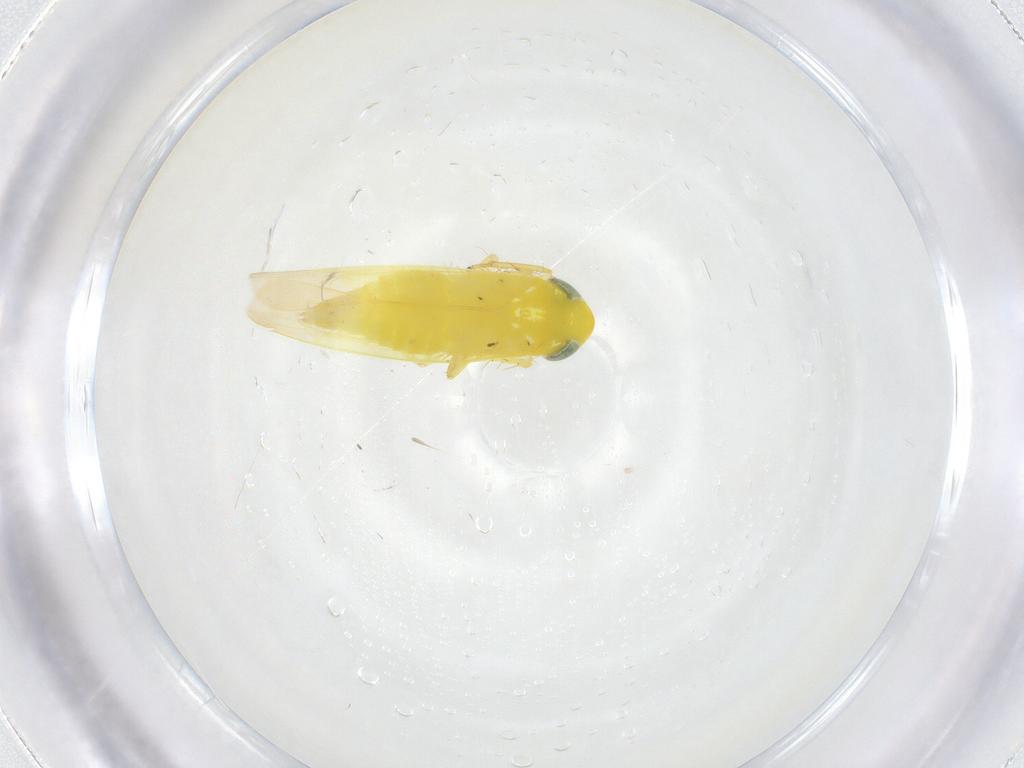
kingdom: Animalia
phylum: Arthropoda
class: Insecta
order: Hemiptera
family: Cicadellidae
